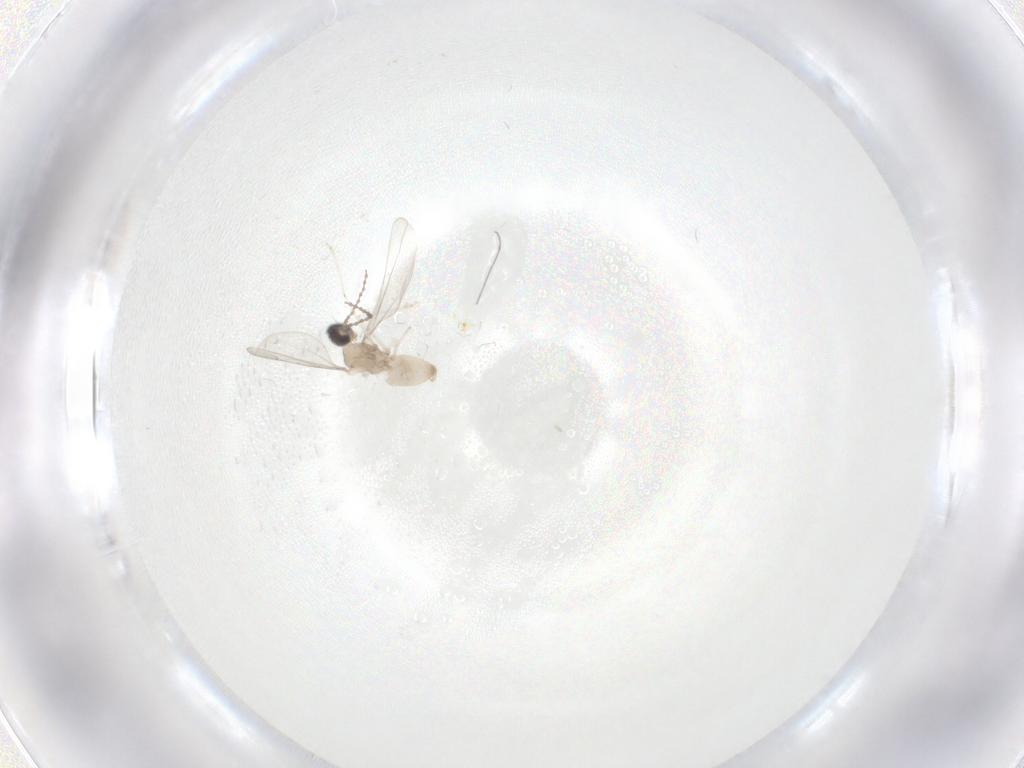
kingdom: Animalia
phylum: Arthropoda
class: Insecta
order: Diptera
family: Cecidomyiidae
